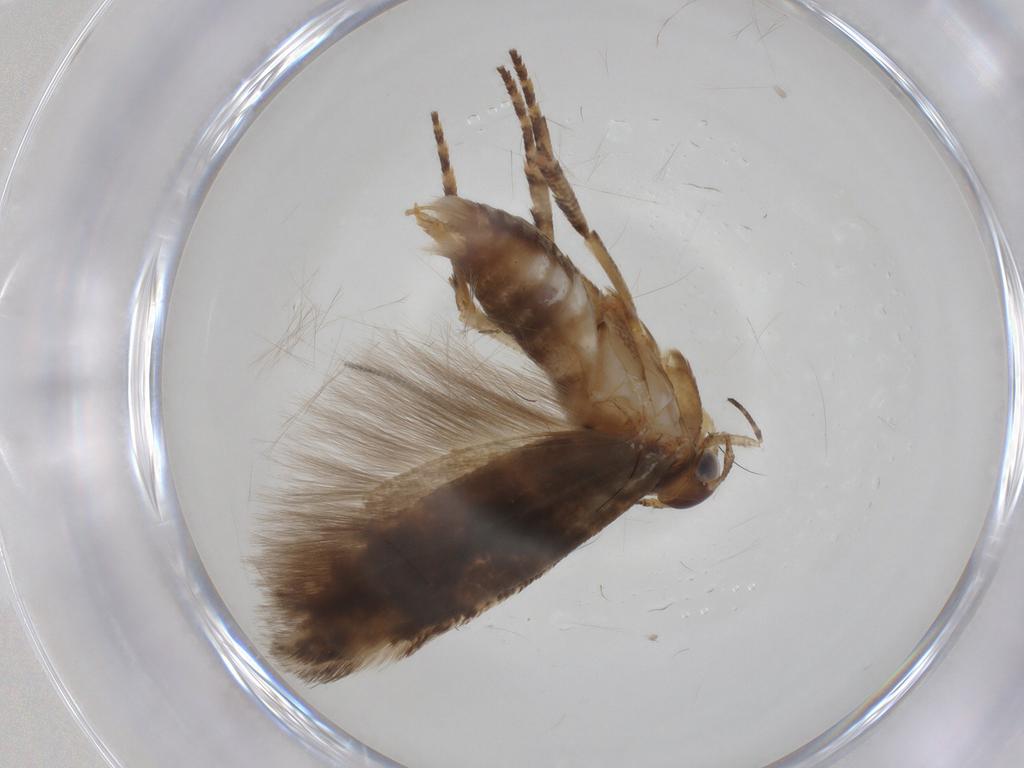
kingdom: Animalia
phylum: Arthropoda
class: Insecta
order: Lepidoptera
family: Gelechiidae
